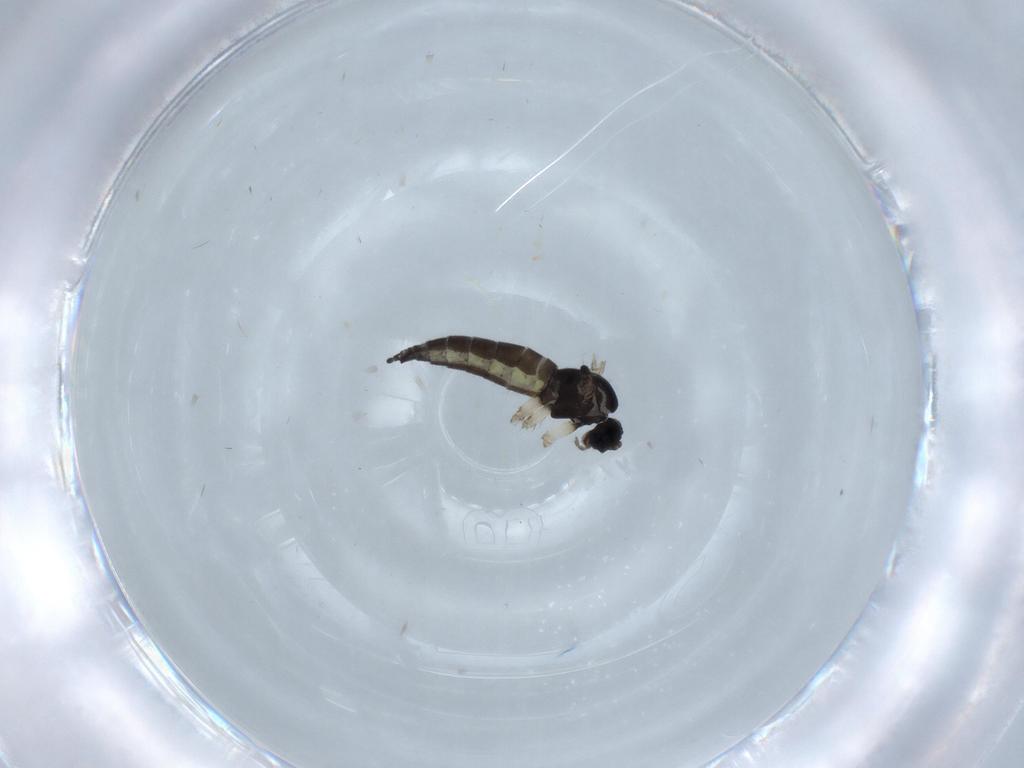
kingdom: Animalia
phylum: Arthropoda
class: Insecta
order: Diptera
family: Sciaridae
